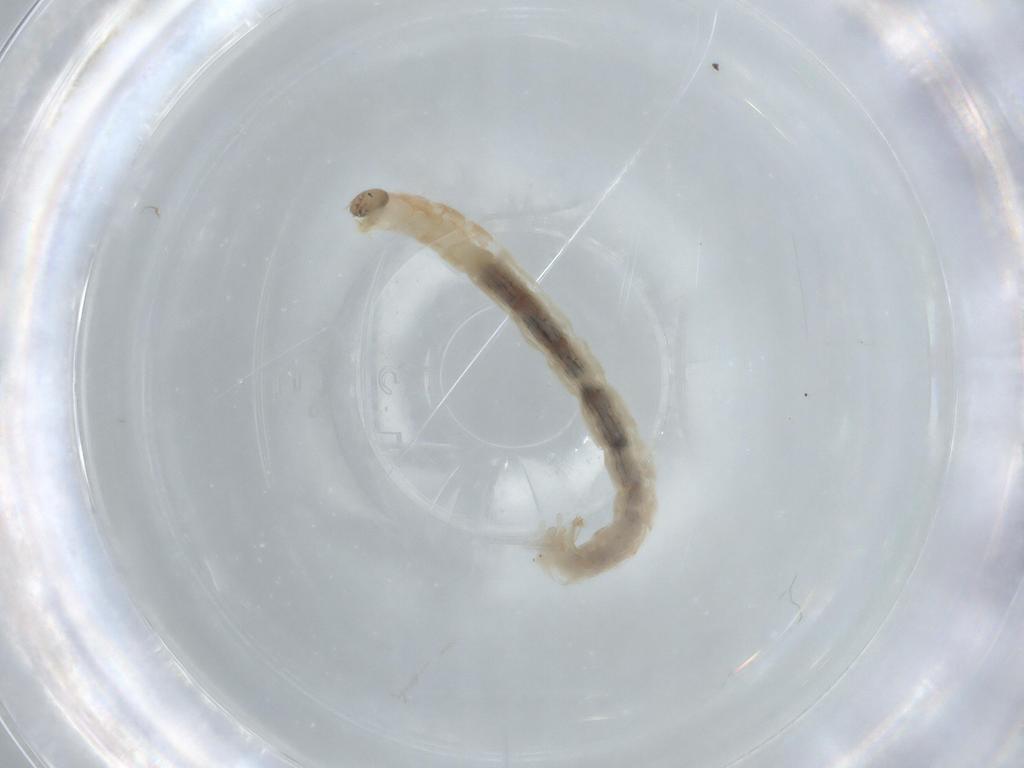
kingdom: Animalia
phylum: Arthropoda
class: Insecta
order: Diptera
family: Chironomidae
